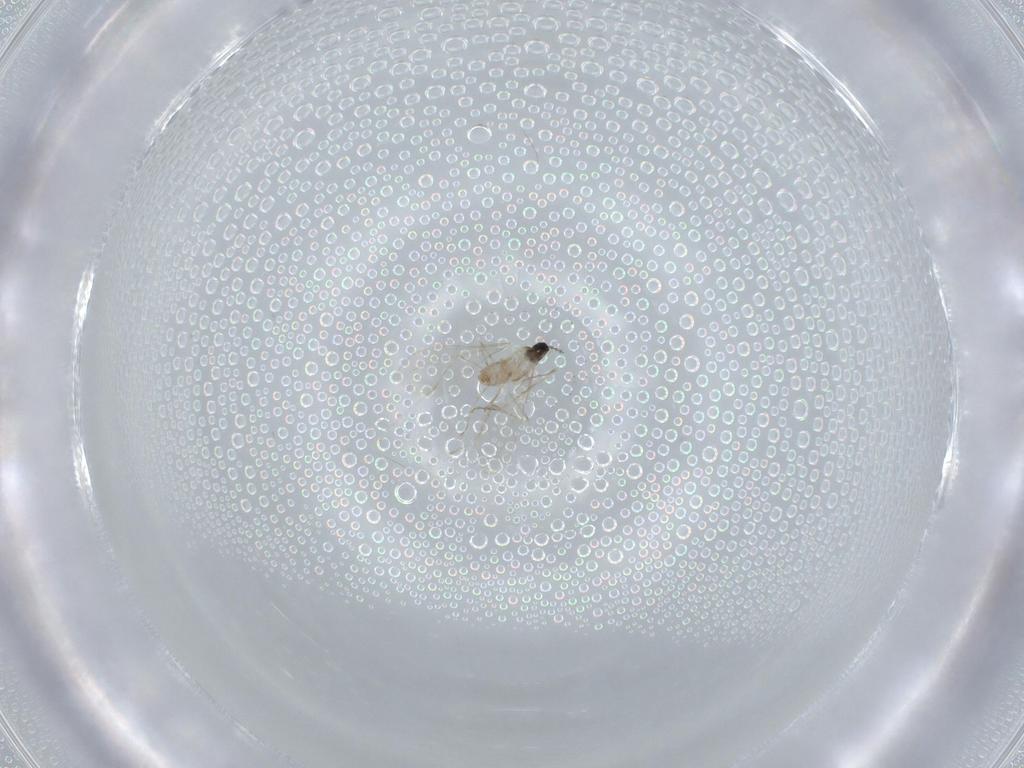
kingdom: Animalia
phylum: Arthropoda
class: Insecta
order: Diptera
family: Cecidomyiidae
